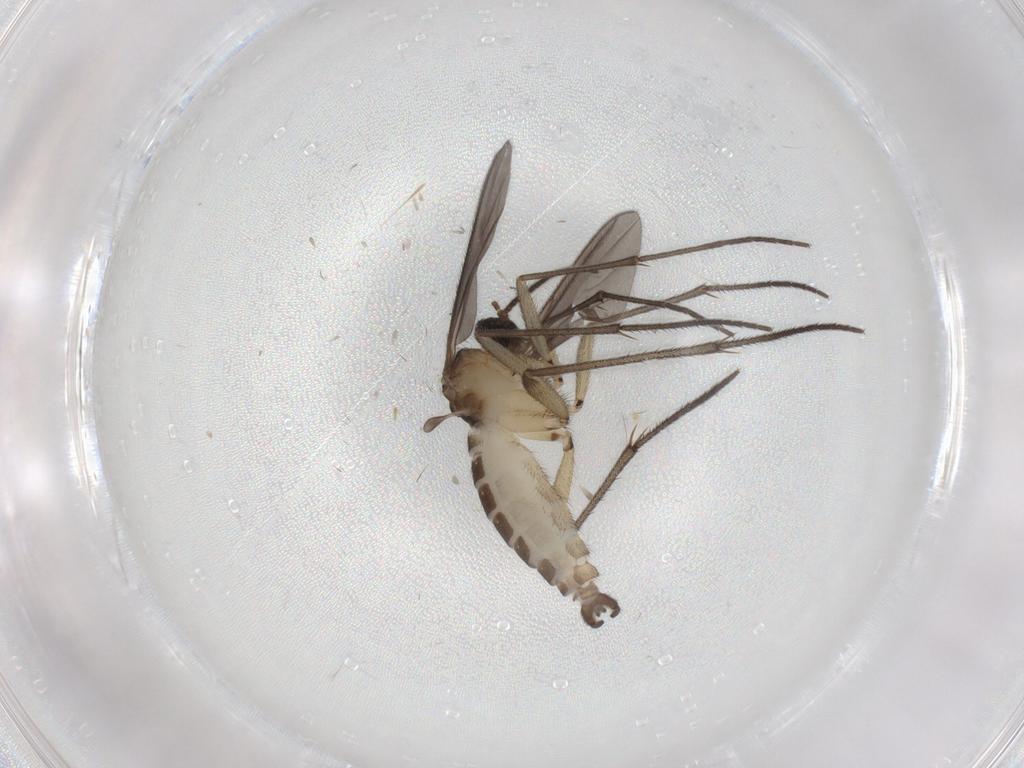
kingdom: Animalia
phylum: Arthropoda
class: Insecta
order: Diptera
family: Sciaridae
